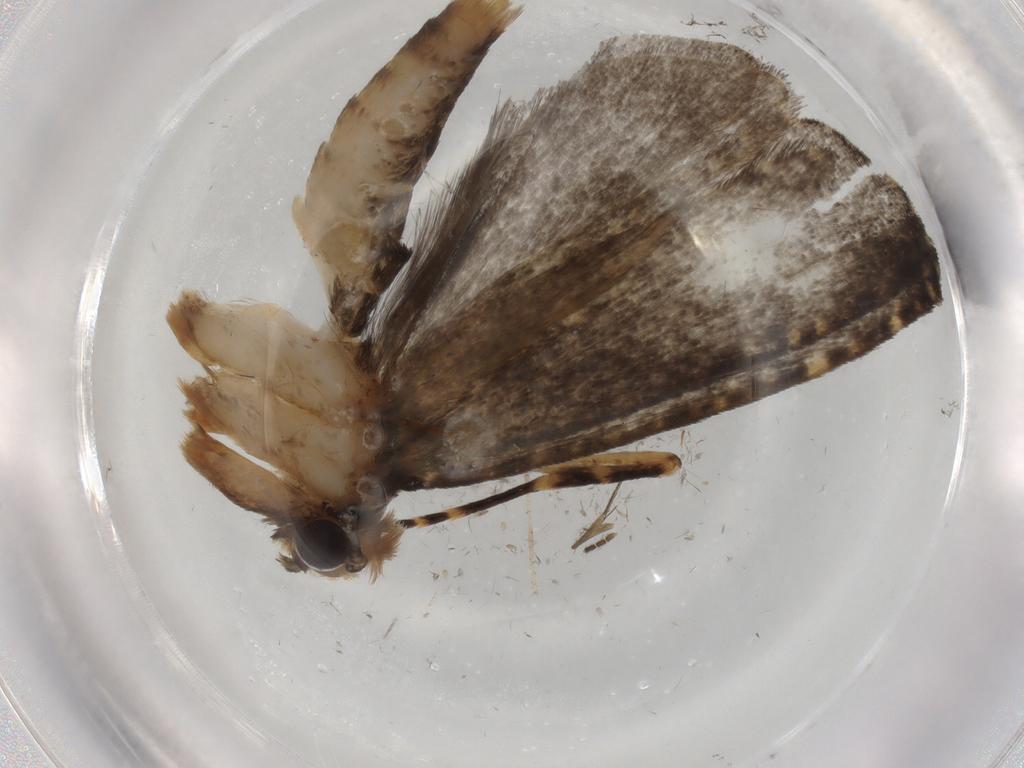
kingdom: Animalia
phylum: Arthropoda
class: Insecta
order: Lepidoptera
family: Tineidae
